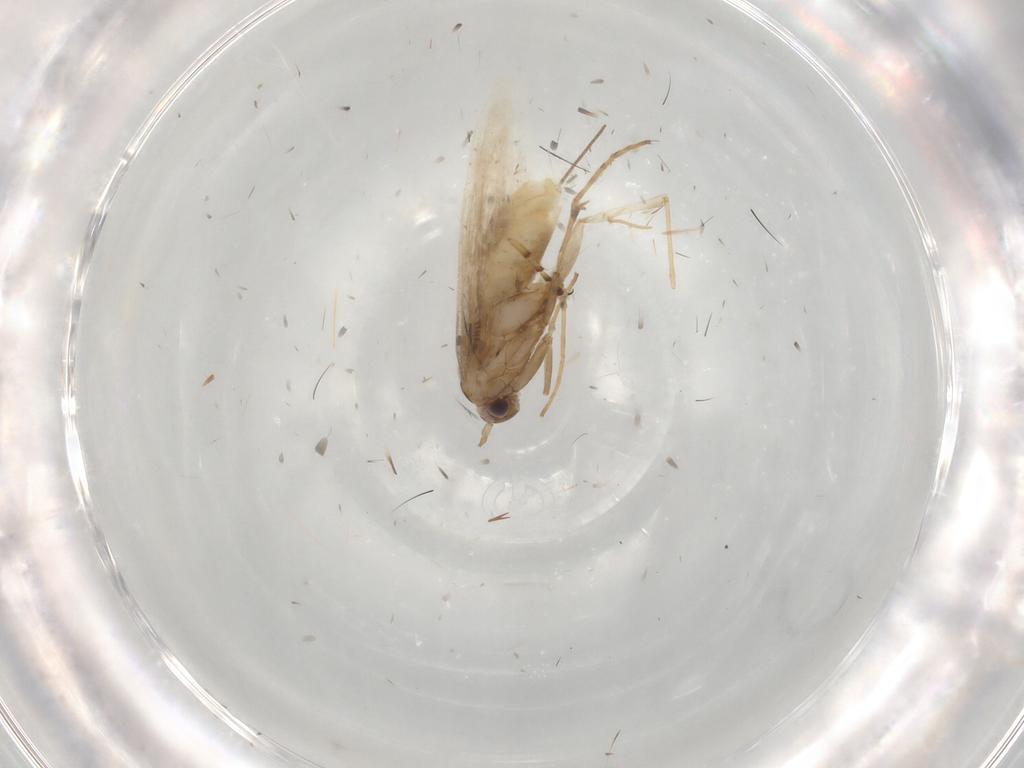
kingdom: Animalia
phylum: Arthropoda
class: Insecta
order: Lepidoptera
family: Gracillariidae
